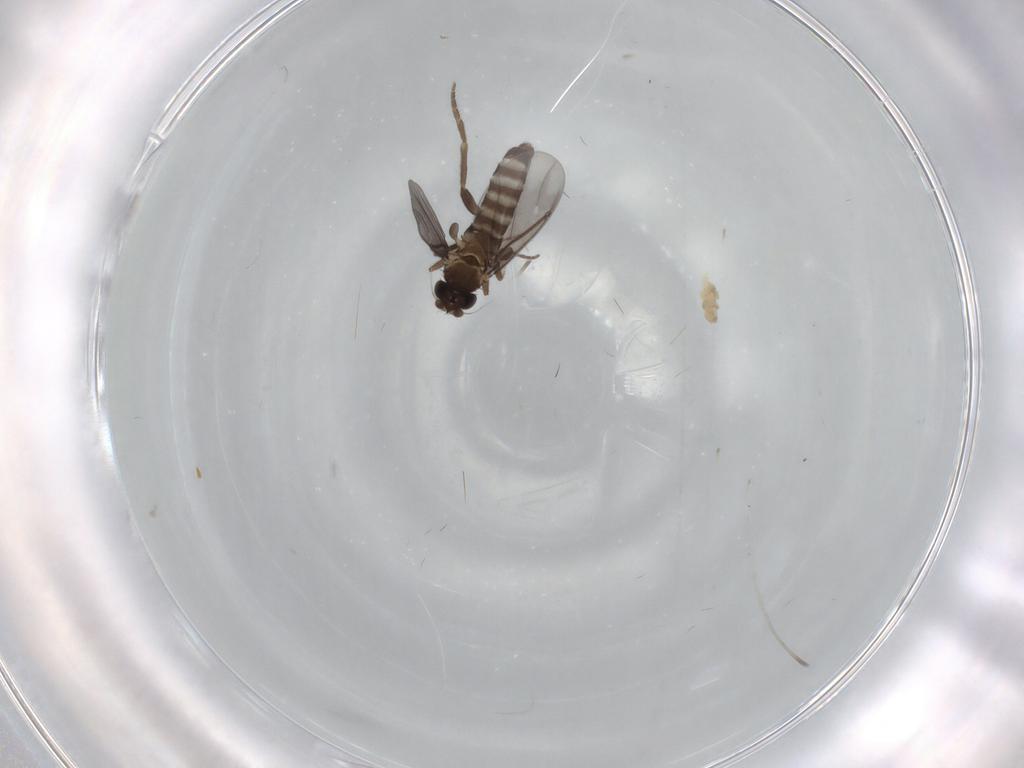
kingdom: Animalia
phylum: Arthropoda
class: Insecta
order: Diptera
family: Chironomidae
